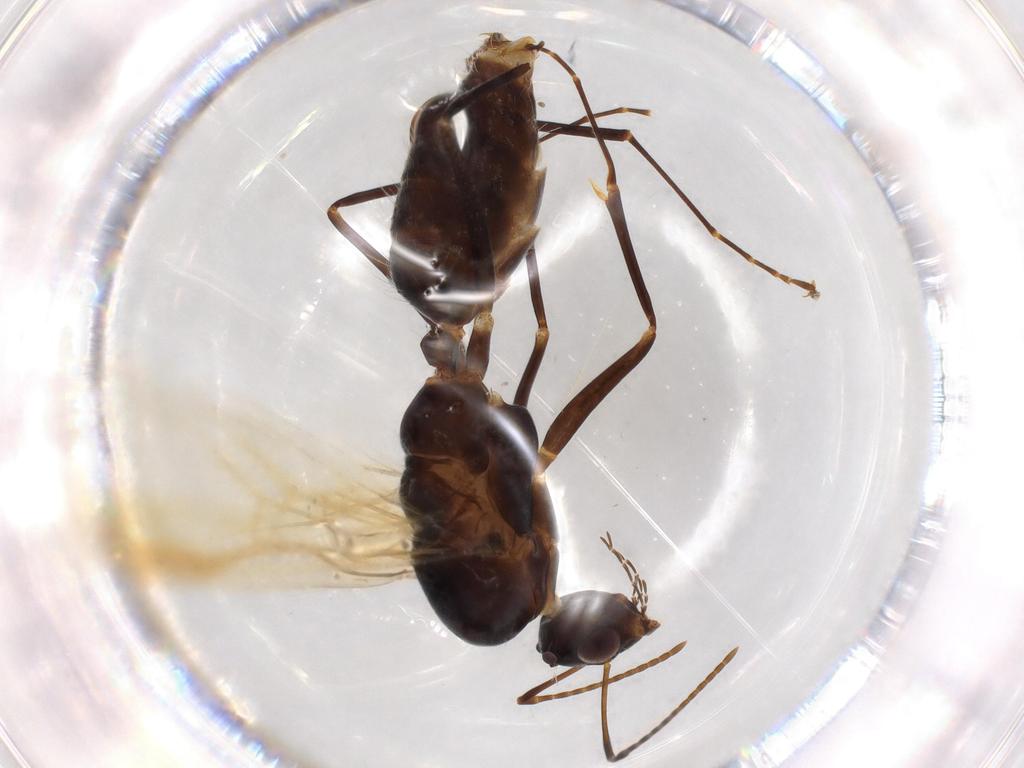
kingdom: Animalia
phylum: Arthropoda
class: Insecta
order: Hymenoptera
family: Formicidae
